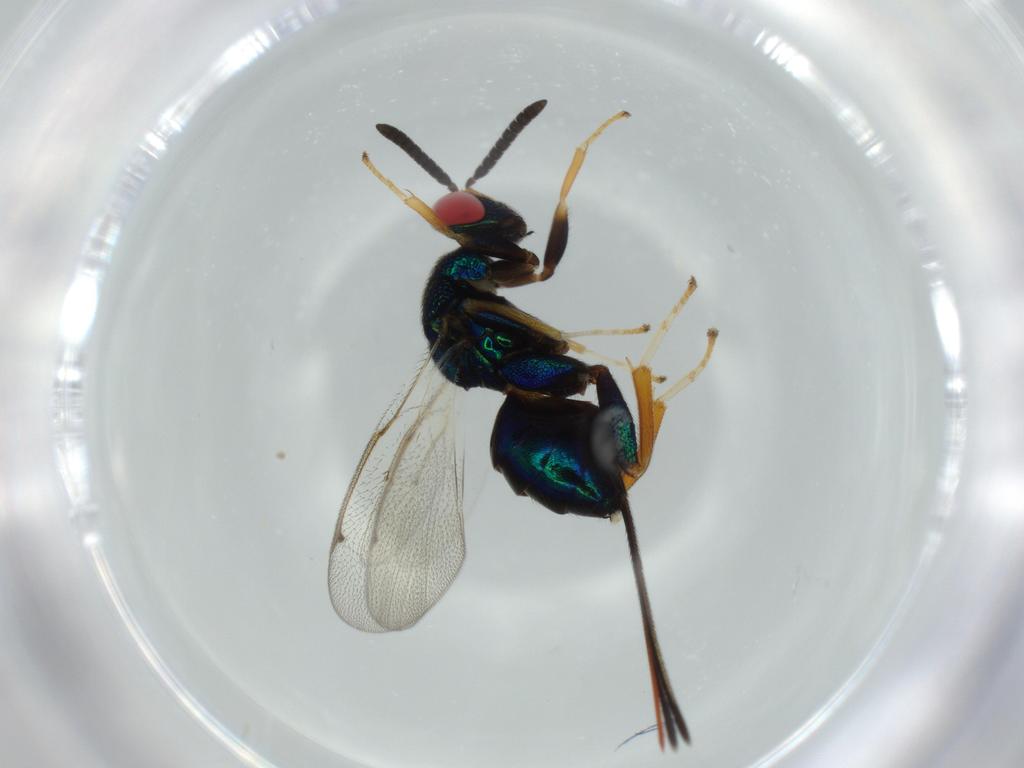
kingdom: Animalia
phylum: Arthropoda
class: Insecta
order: Hymenoptera
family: Torymidae
